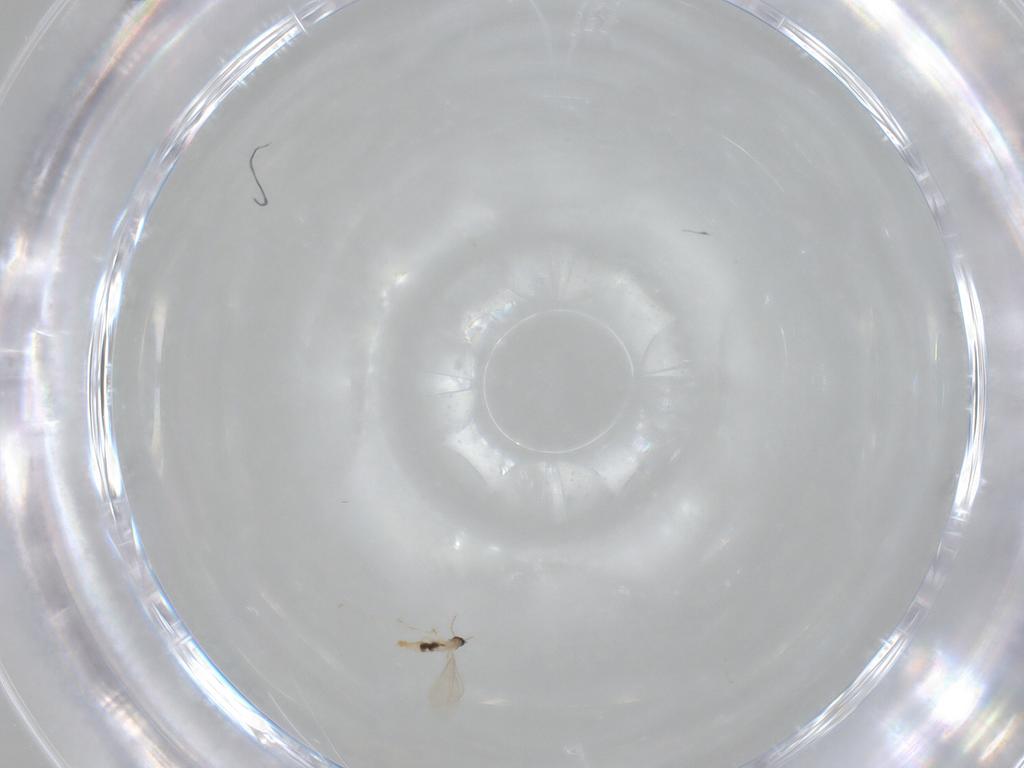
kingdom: Animalia
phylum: Arthropoda
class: Insecta
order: Diptera
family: Cecidomyiidae
